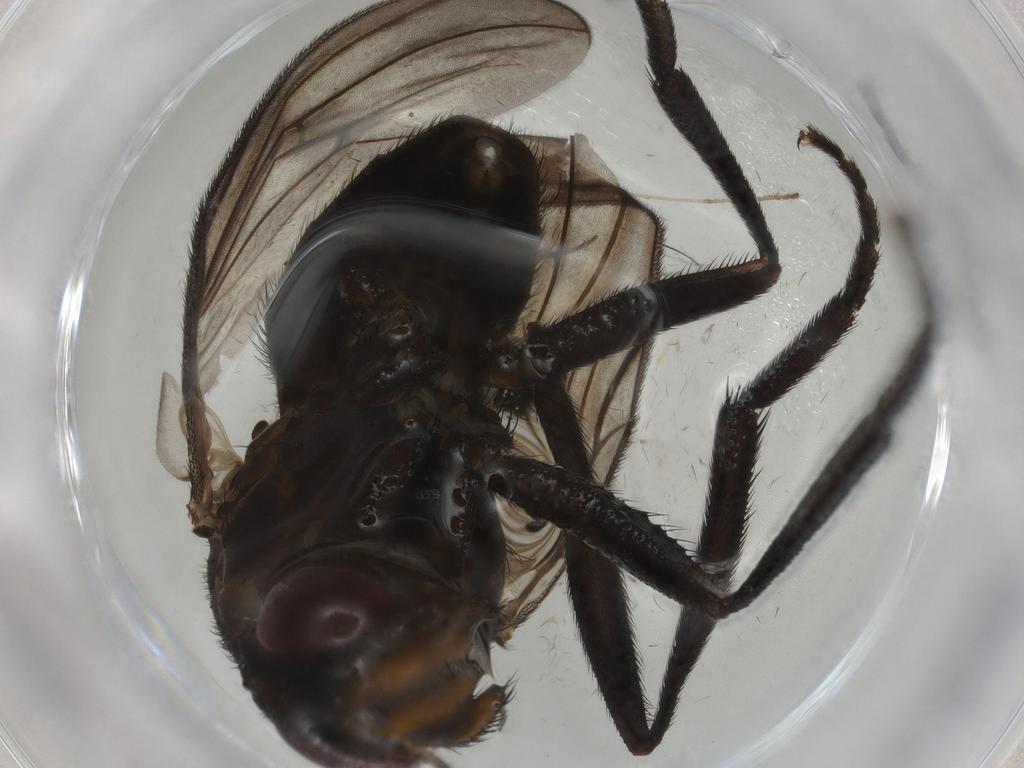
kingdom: Animalia
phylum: Arthropoda
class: Insecta
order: Diptera
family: Limoniidae
